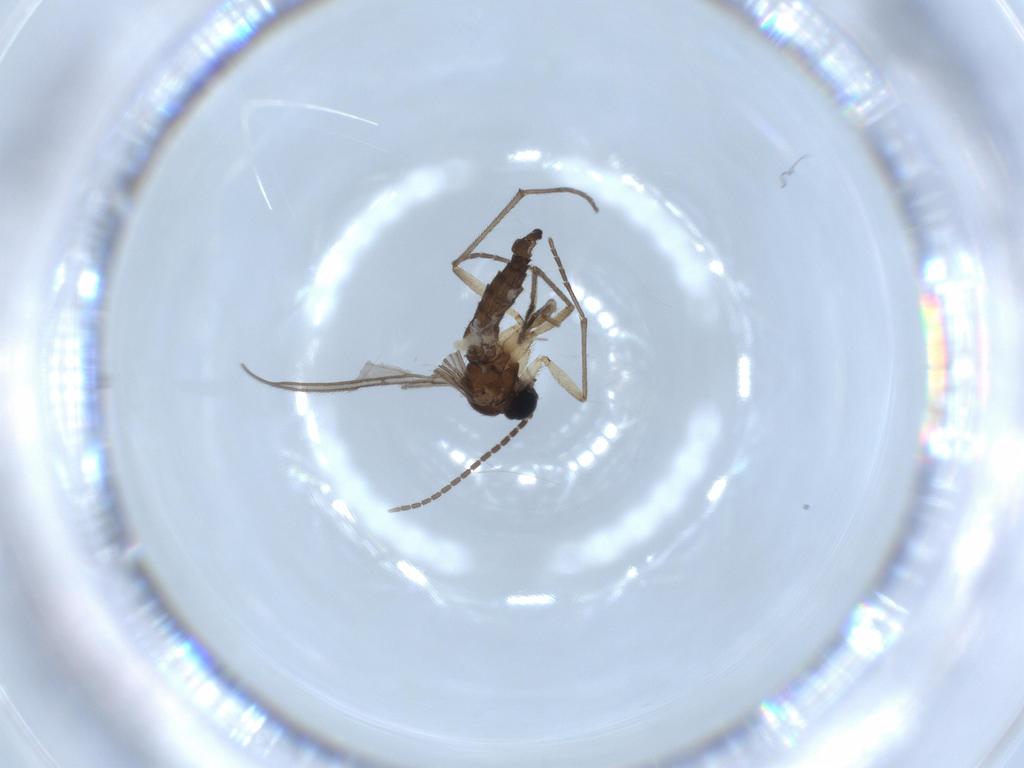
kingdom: Animalia
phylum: Arthropoda
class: Insecta
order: Diptera
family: Sciaridae
